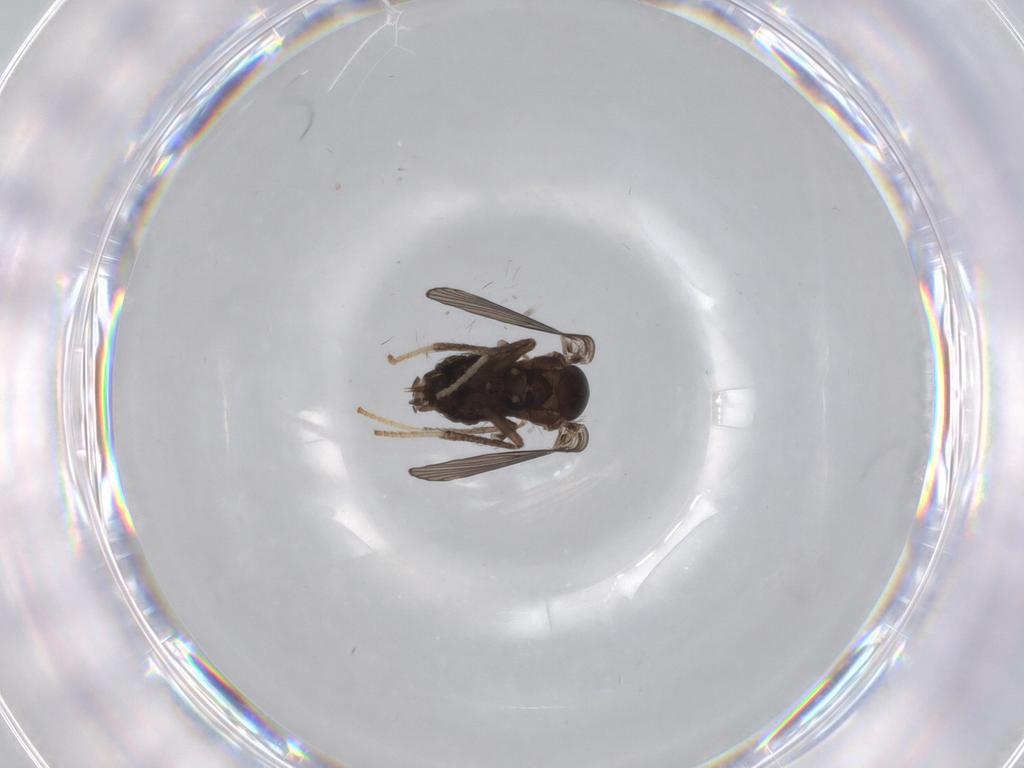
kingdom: Animalia
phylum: Arthropoda
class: Insecta
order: Diptera
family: Psychodidae
